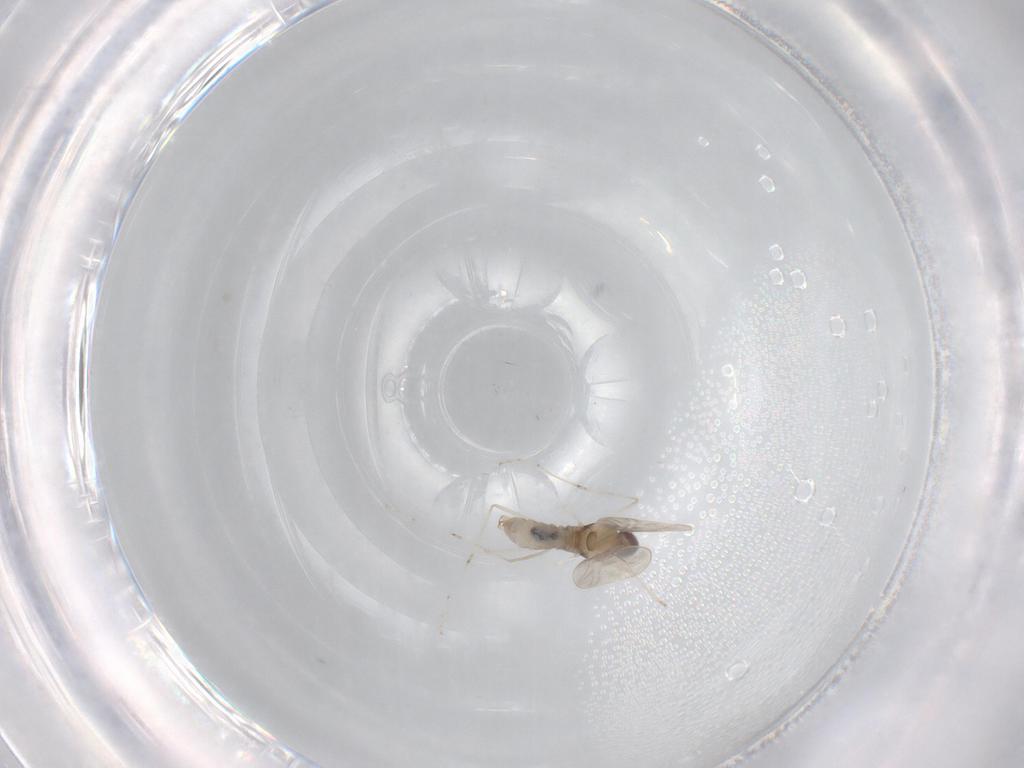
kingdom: Animalia
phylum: Arthropoda
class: Insecta
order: Diptera
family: Cecidomyiidae
